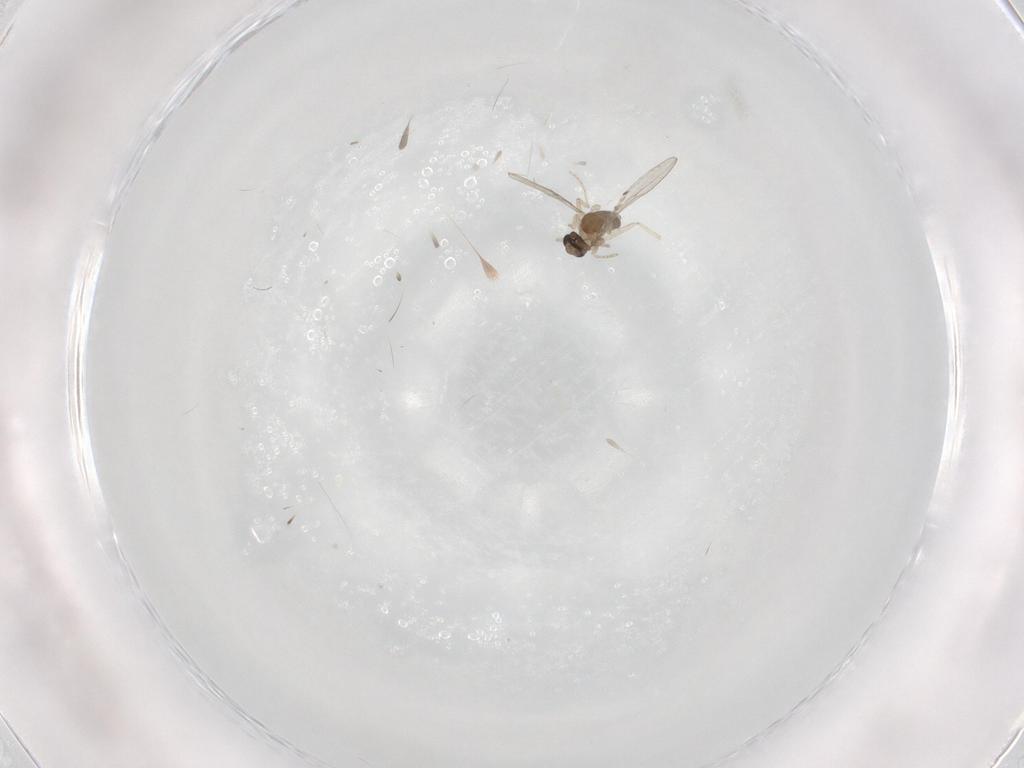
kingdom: Animalia
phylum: Arthropoda
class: Insecta
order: Diptera
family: Cecidomyiidae
